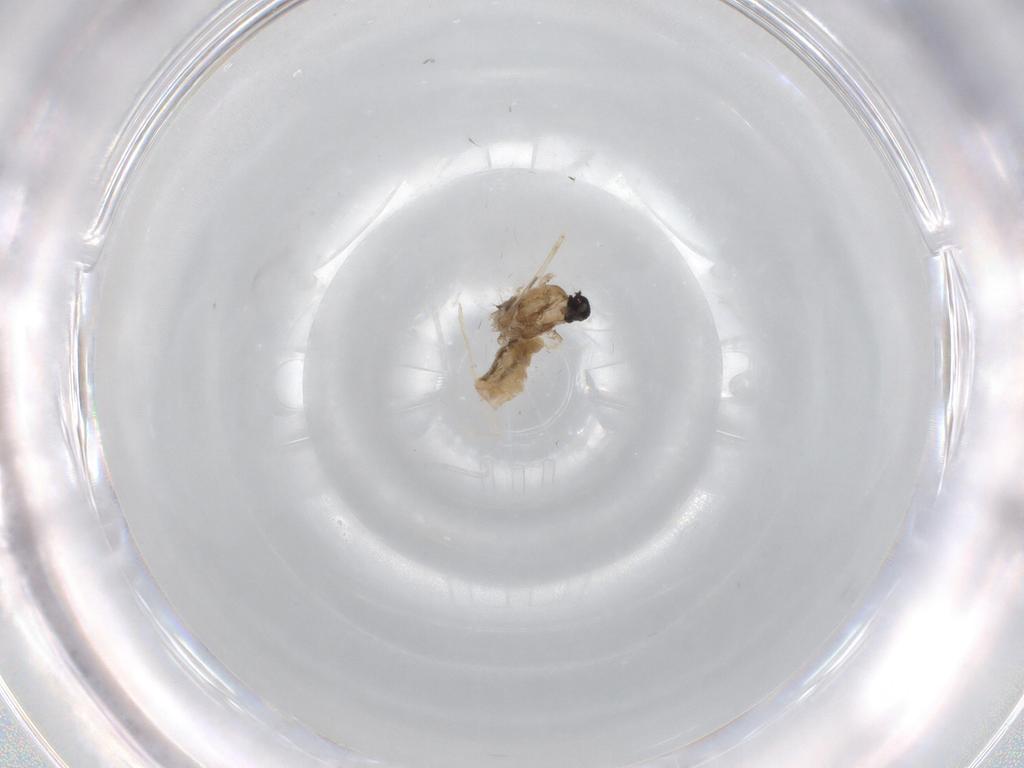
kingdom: Animalia
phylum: Arthropoda
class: Insecta
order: Diptera
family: Cecidomyiidae
